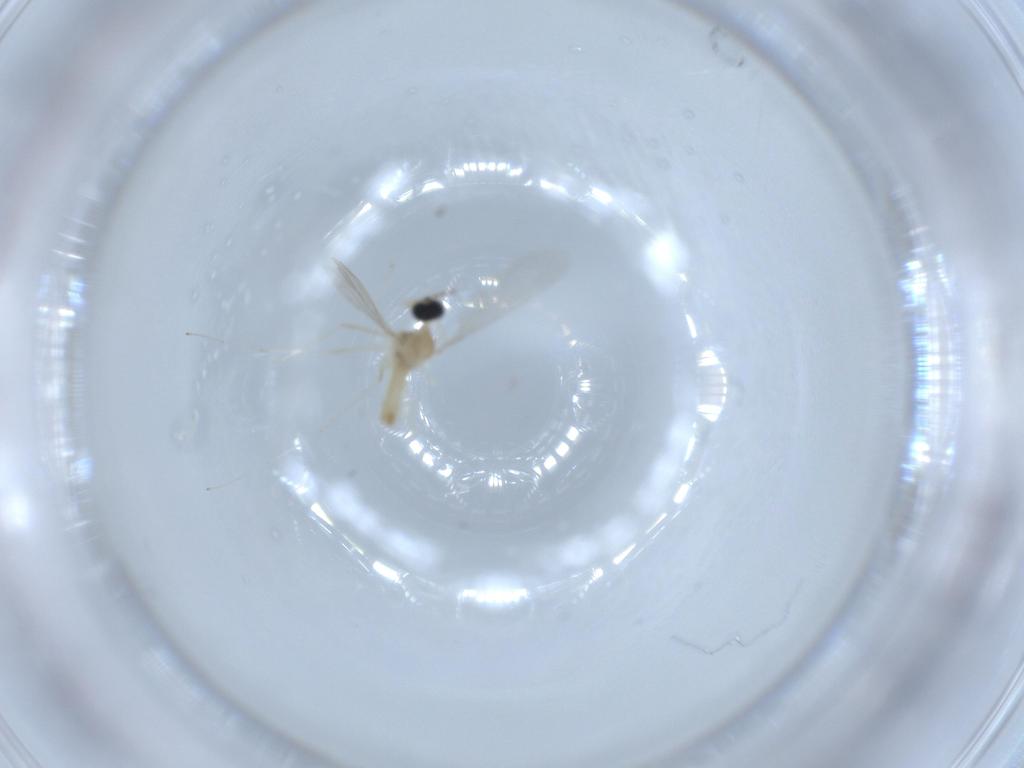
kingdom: Animalia
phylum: Arthropoda
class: Insecta
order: Diptera
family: Cecidomyiidae
